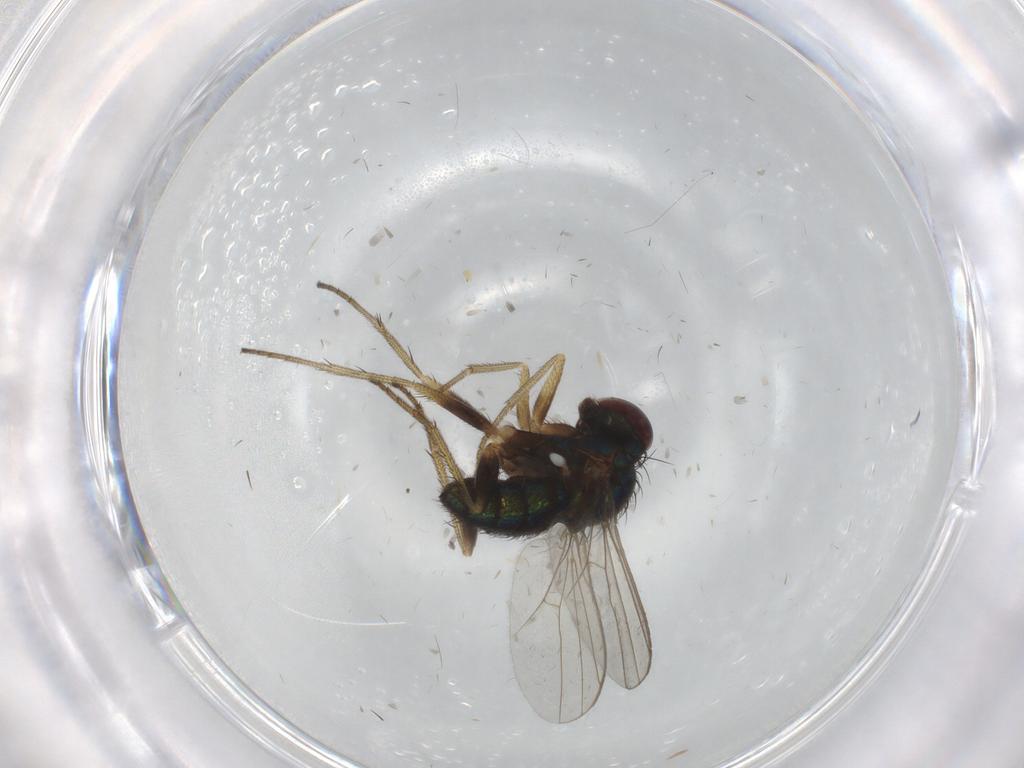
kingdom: Animalia
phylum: Arthropoda
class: Insecta
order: Diptera
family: Dolichopodidae
